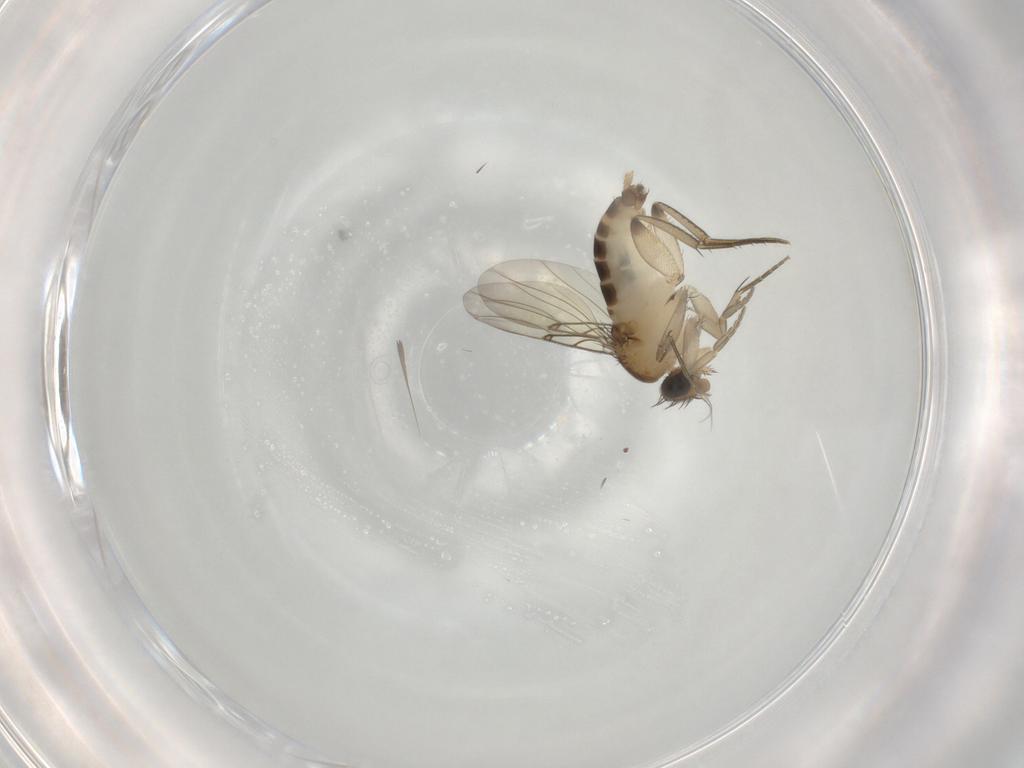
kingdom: Animalia
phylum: Arthropoda
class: Insecta
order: Diptera
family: Phoridae
